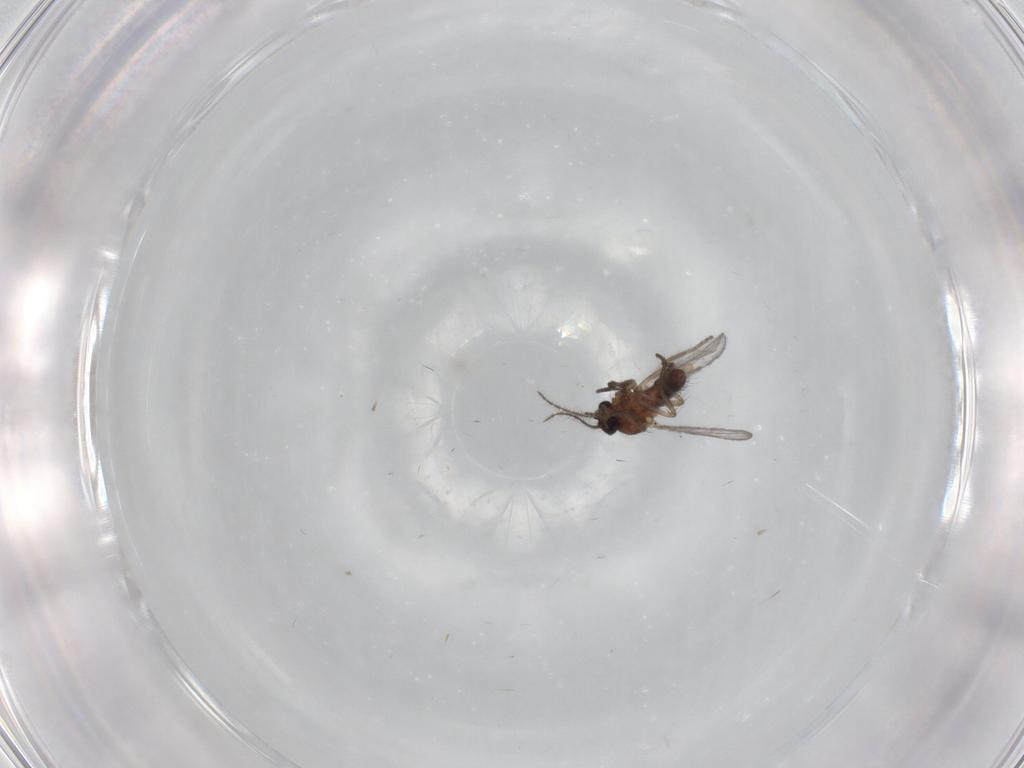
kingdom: Animalia
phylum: Arthropoda
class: Insecta
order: Diptera
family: Ceratopogonidae
